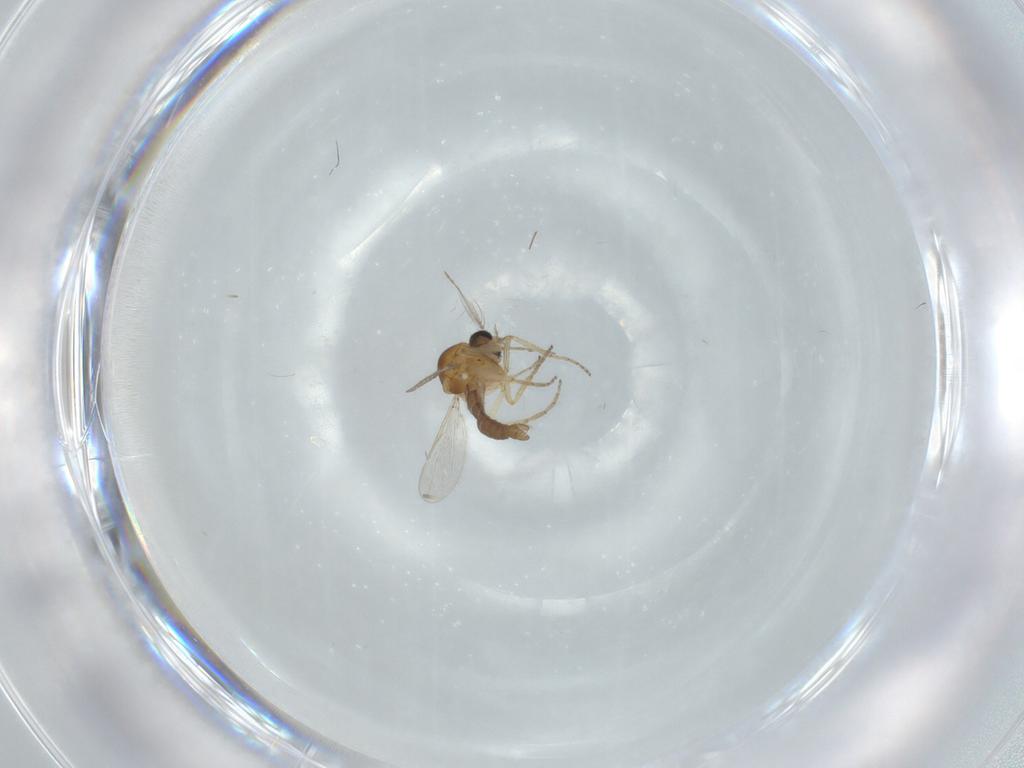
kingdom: Animalia
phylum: Arthropoda
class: Insecta
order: Diptera
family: Ceratopogonidae
